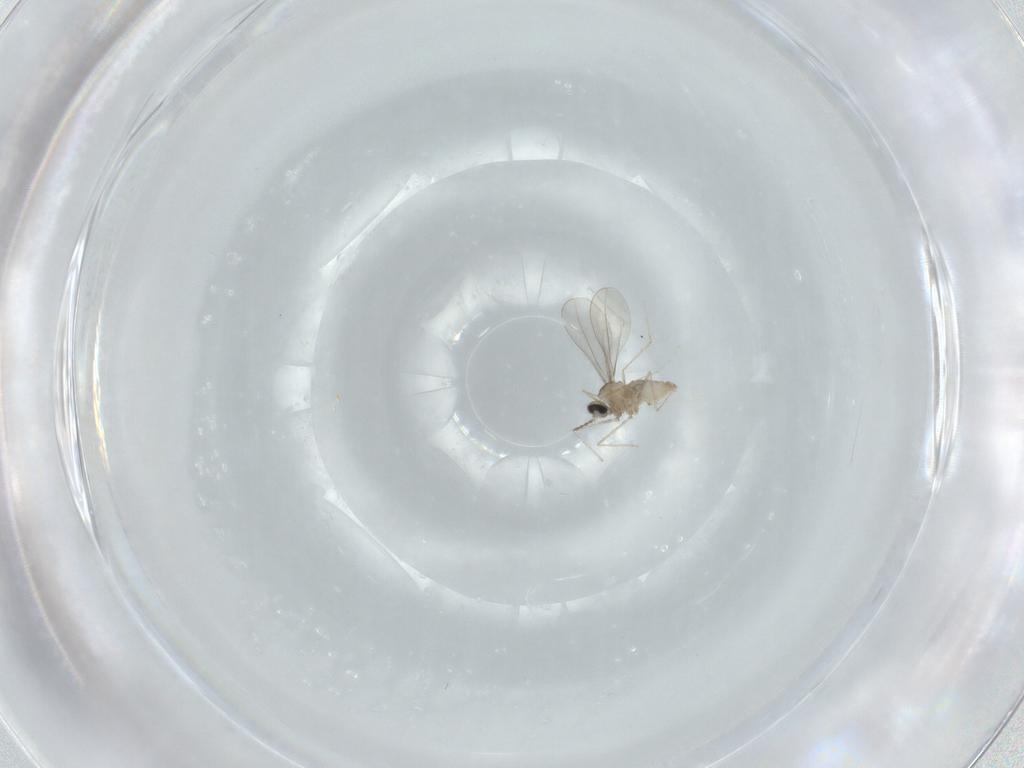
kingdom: Animalia
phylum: Arthropoda
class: Insecta
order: Diptera
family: Cecidomyiidae
